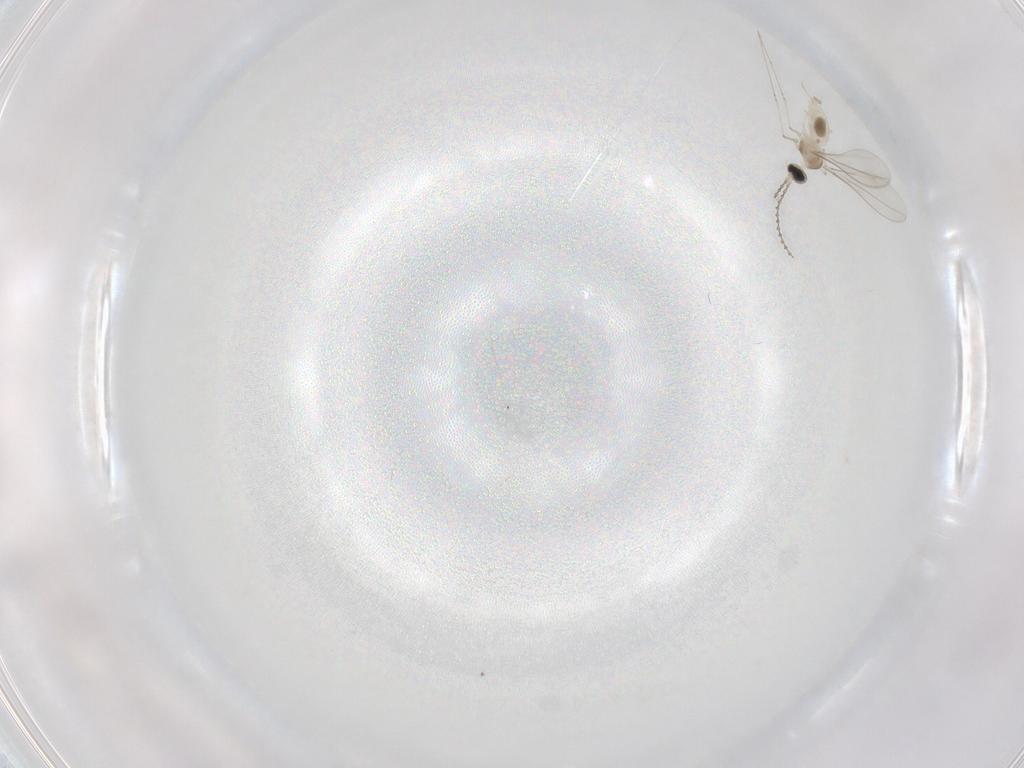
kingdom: Animalia
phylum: Arthropoda
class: Insecta
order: Diptera
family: Cecidomyiidae
